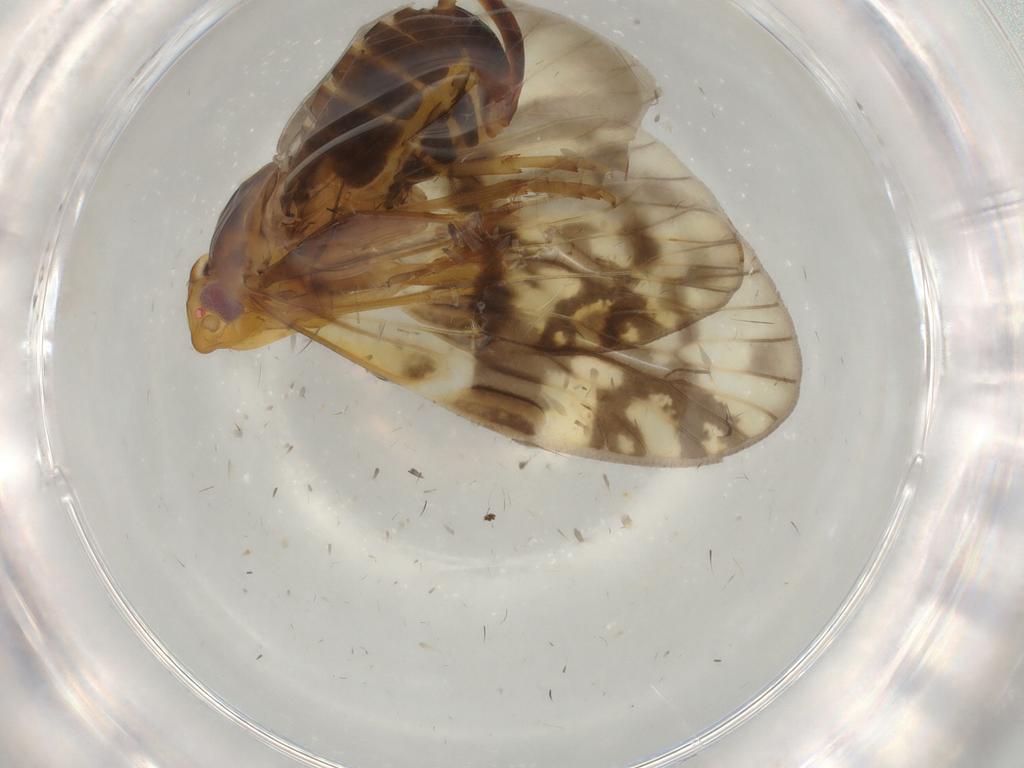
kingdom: Animalia
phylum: Arthropoda
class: Insecta
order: Hemiptera
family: Cixiidae
